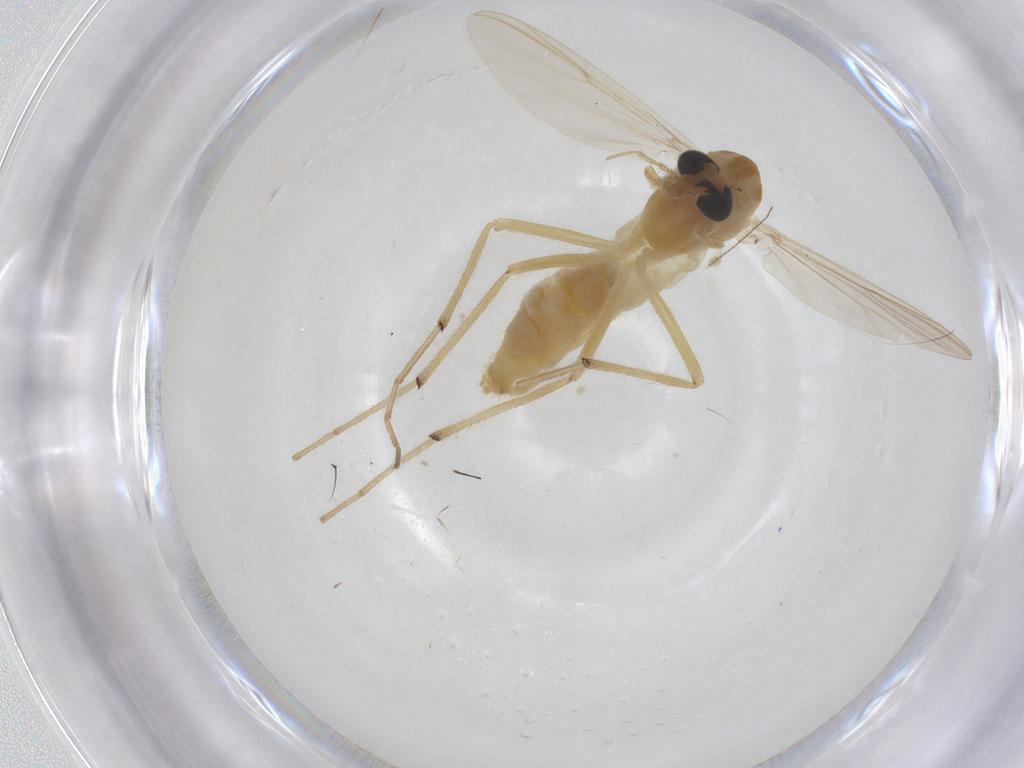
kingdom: Animalia
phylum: Arthropoda
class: Insecta
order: Diptera
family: Chironomidae
